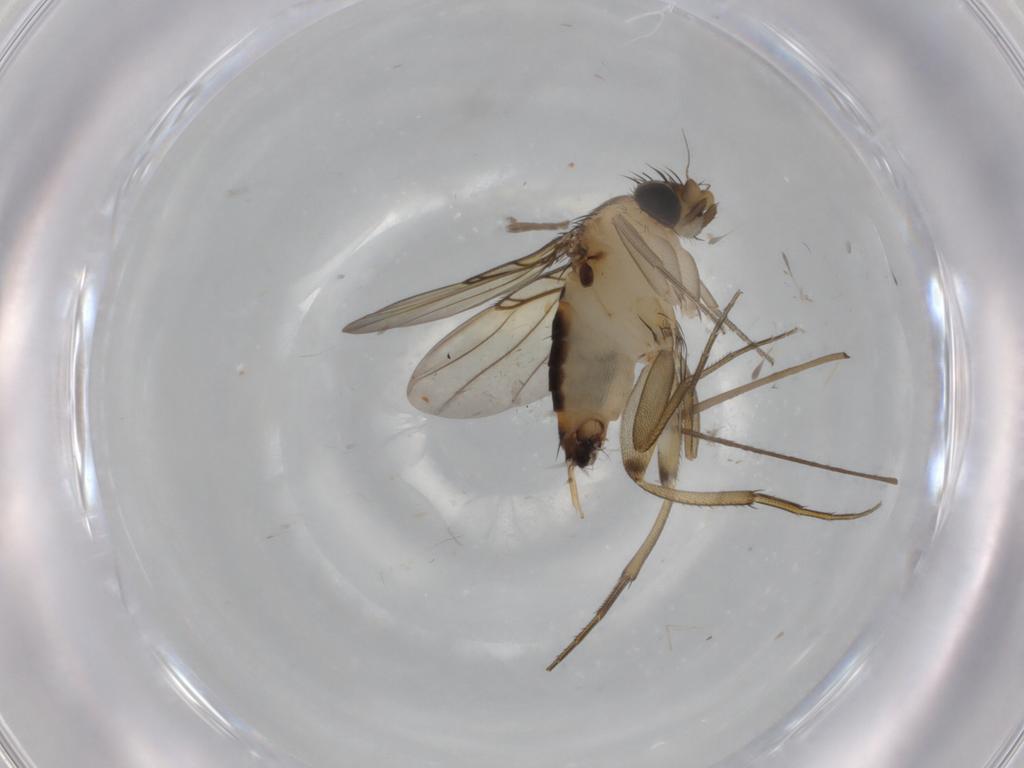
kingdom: Animalia
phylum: Arthropoda
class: Insecta
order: Diptera
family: Phoridae
